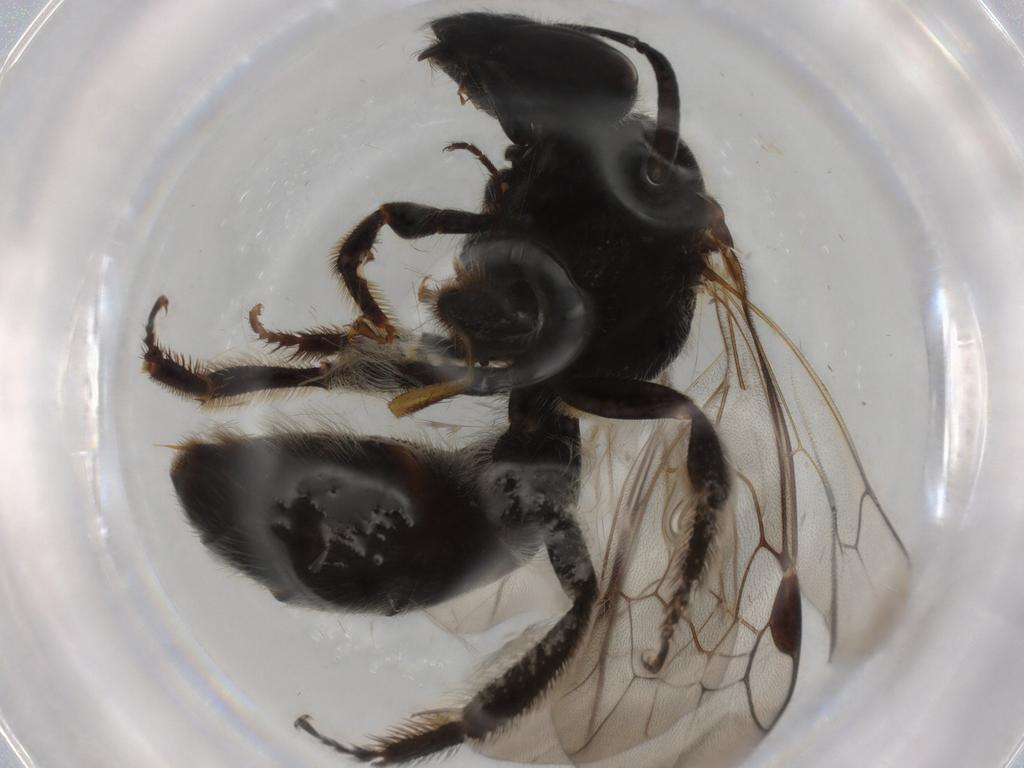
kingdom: Animalia
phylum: Arthropoda
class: Insecta
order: Hymenoptera
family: Halictidae
